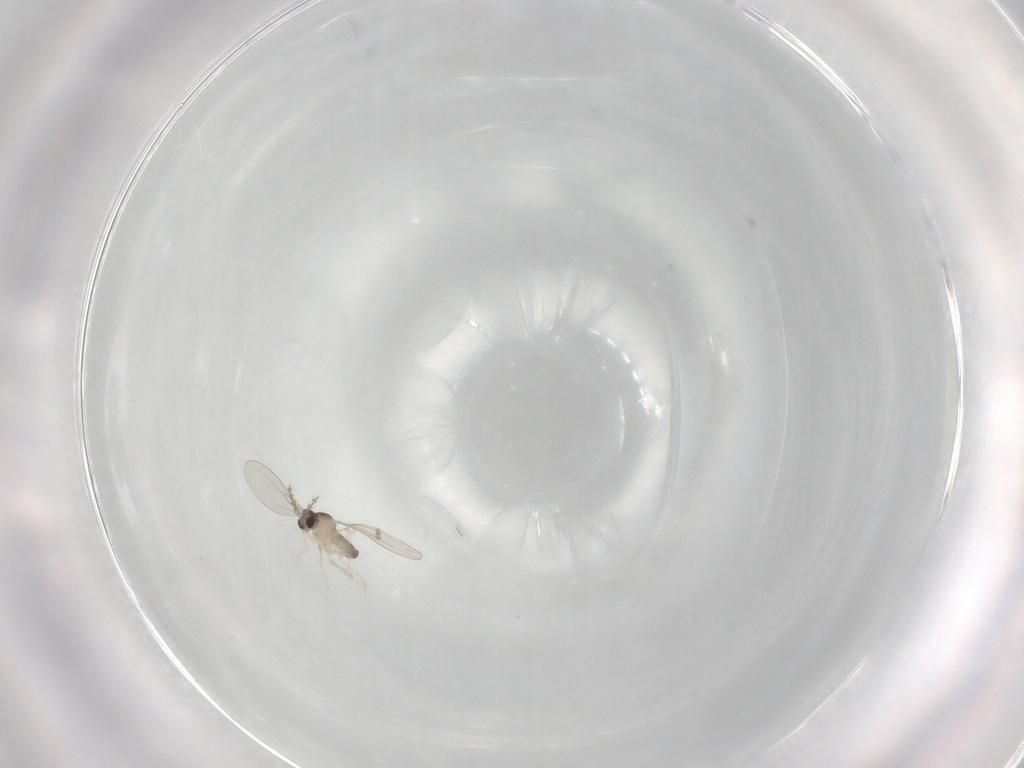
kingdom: Animalia
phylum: Arthropoda
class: Insecta
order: Diptera
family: Cecidomyiidae
